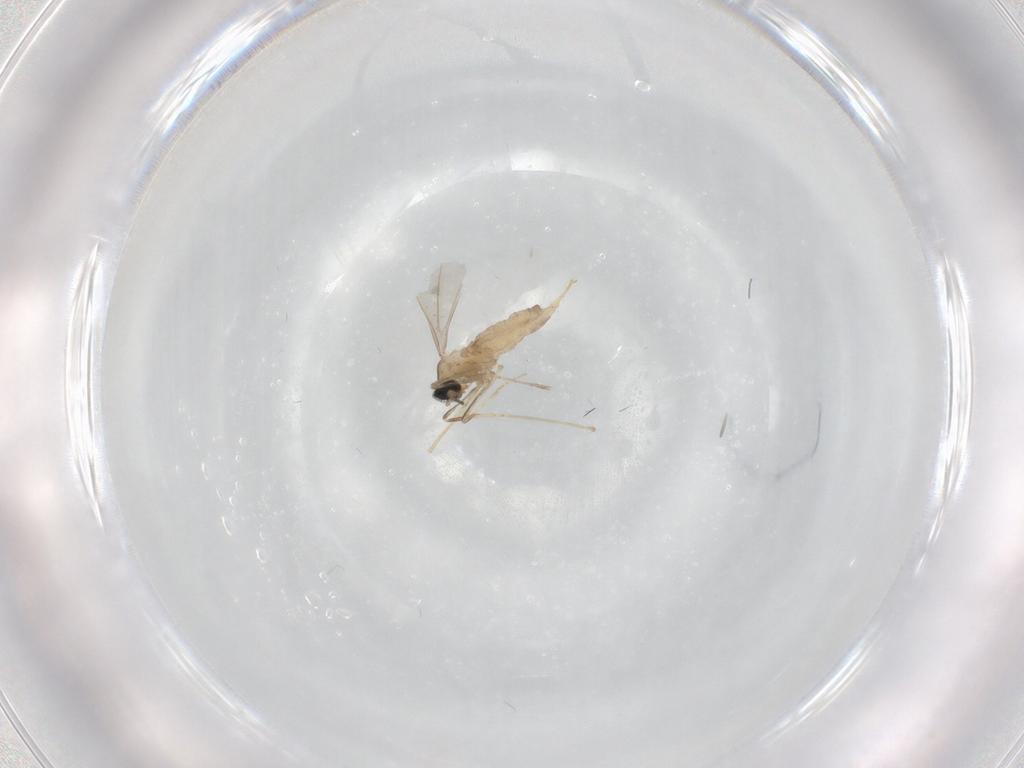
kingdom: Animalia
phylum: Arthropoda
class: Insecta
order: Diptera
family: Cecidomyiidae
